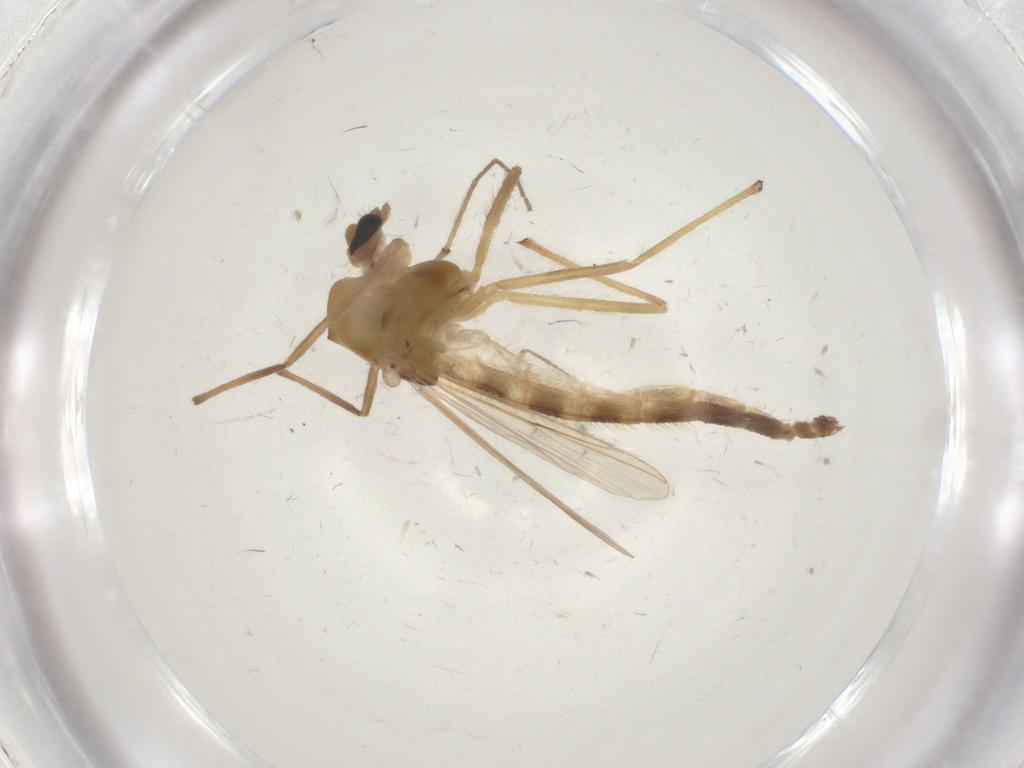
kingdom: Animalia
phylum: Arthropoda
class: Insecta
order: Diptera
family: Chironomidae
